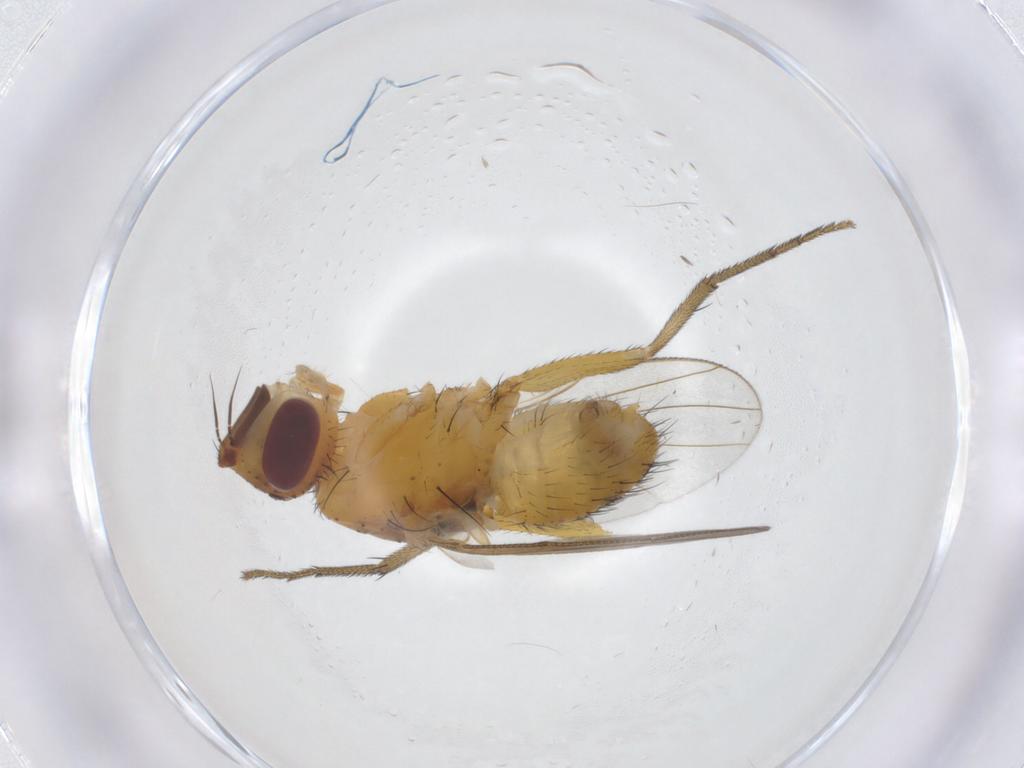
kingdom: Animalia
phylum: Arthropoda
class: Insecta
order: Diptera
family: Muscidae
